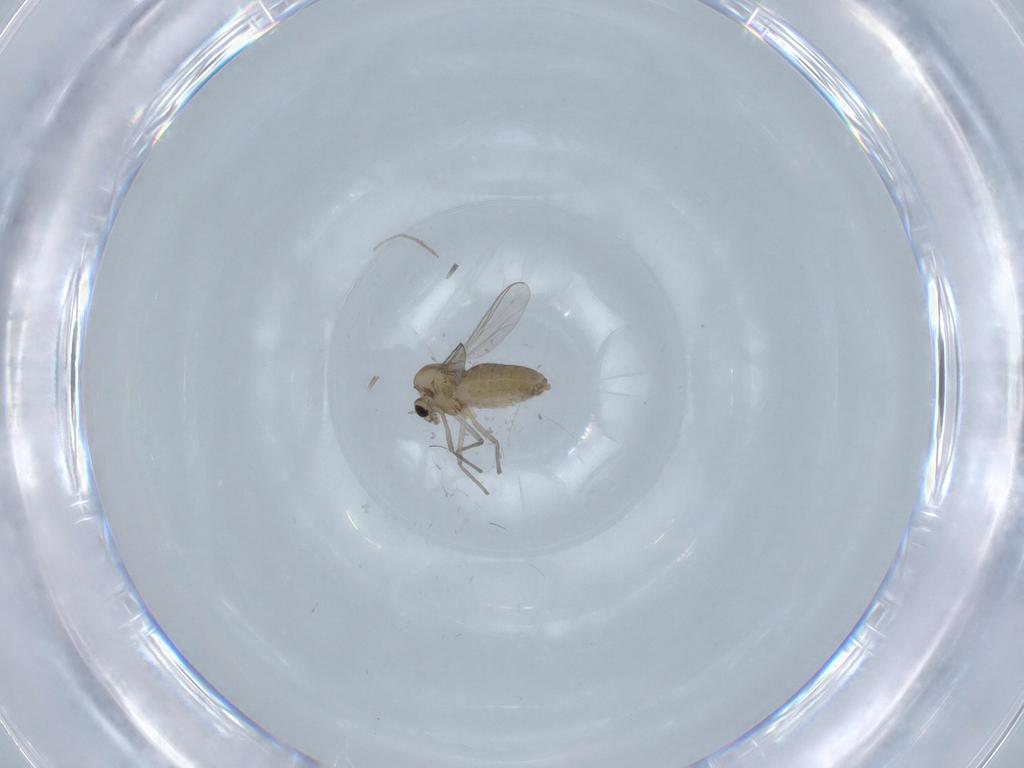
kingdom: Animalia
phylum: Arthropoda
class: Insecta
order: Diptera
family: Chironomidae
